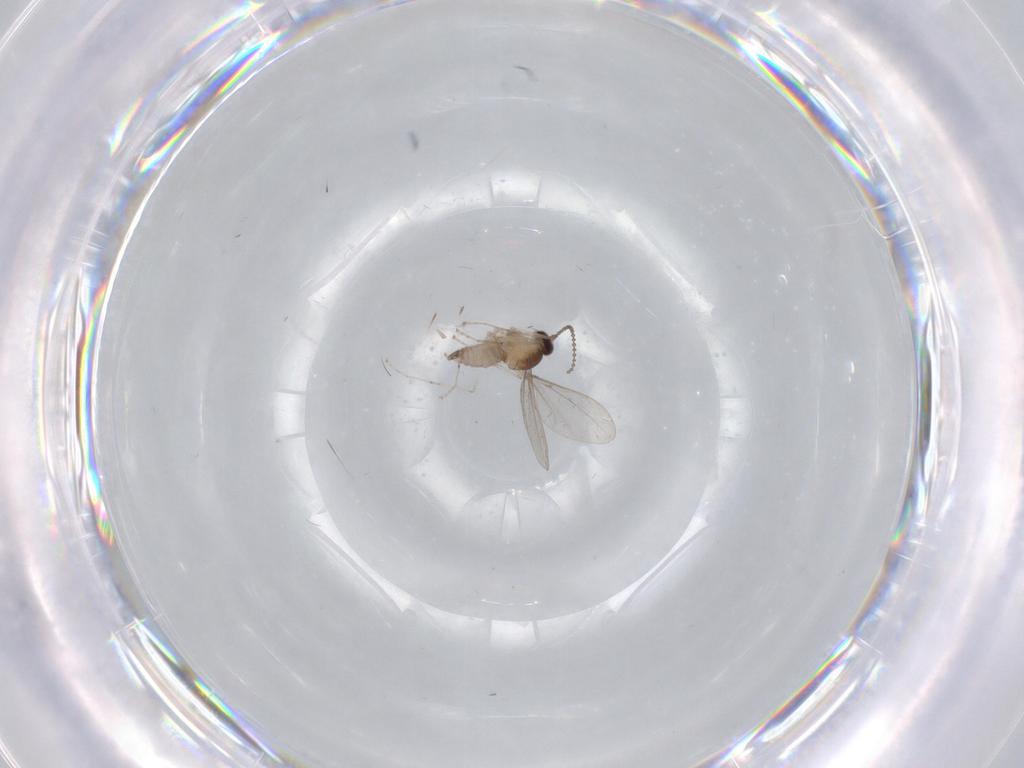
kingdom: Animalia
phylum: Arthropoda
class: Insecta
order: Diptera
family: Cecidomyiidae
